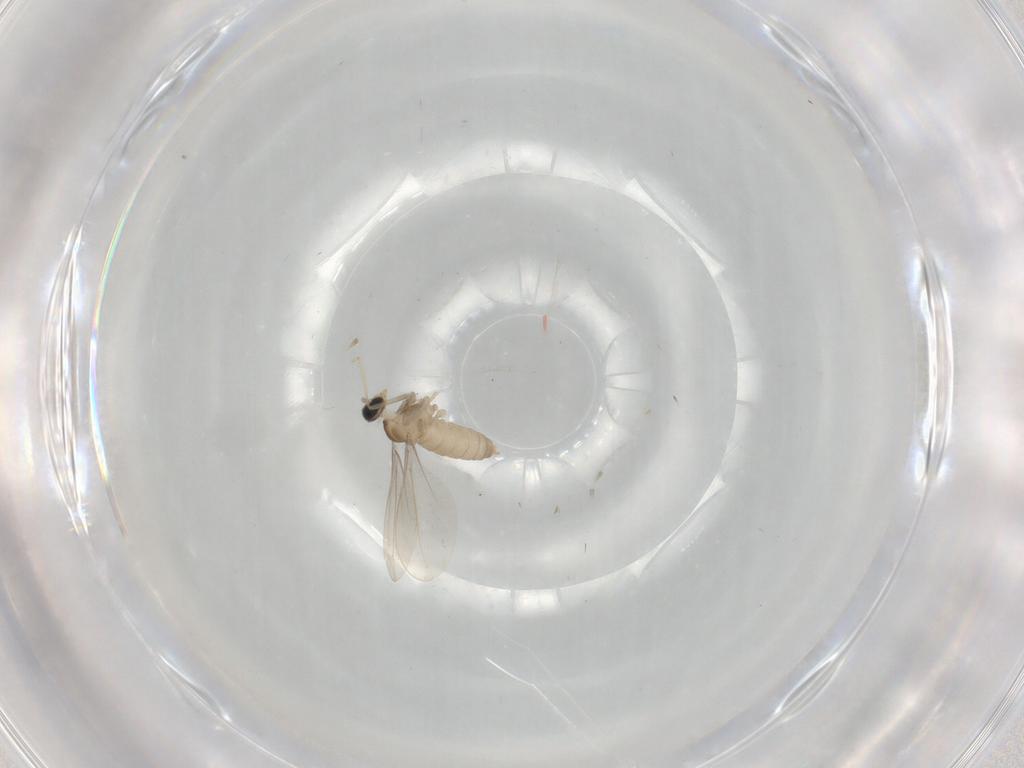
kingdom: Animalia
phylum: Arthropoda
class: Insecta
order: Diptera
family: Cecidomyiidae
